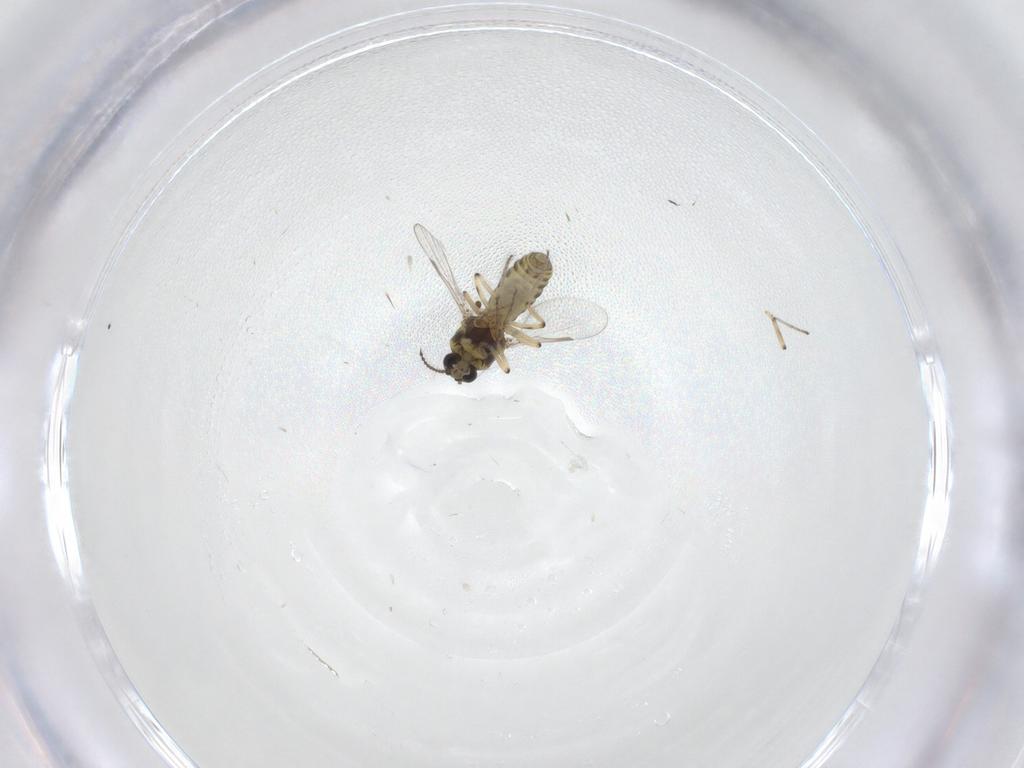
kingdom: Animalia
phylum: Arthropoda
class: Insecta
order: Diptera
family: Ceratopogonidae
